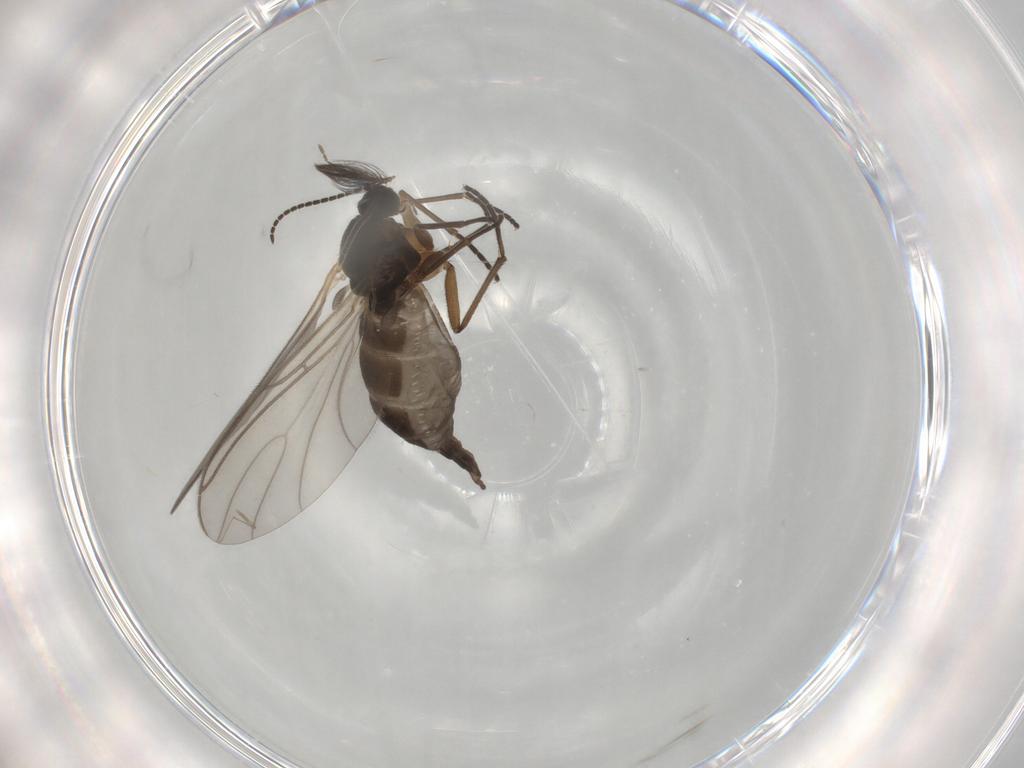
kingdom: Animalia
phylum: Arthropoda
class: Insecta
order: Diptera
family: Sciaridae
